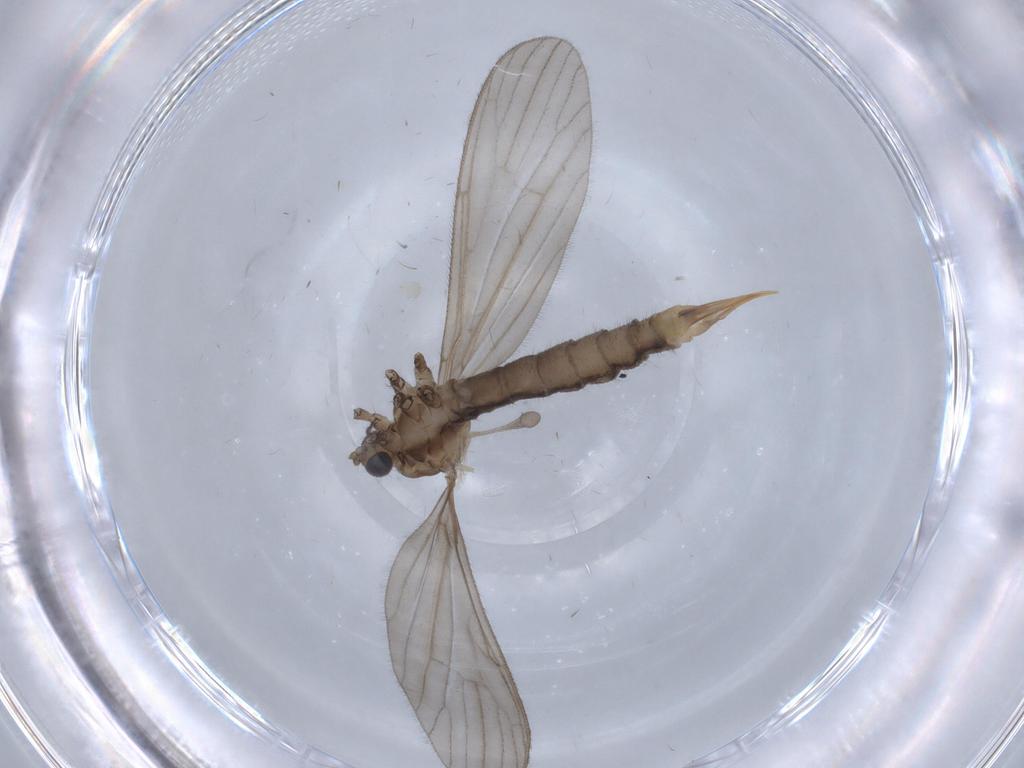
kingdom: Animalia
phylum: Arthropoda
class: Insecta
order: Diptera
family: Limoniidae
